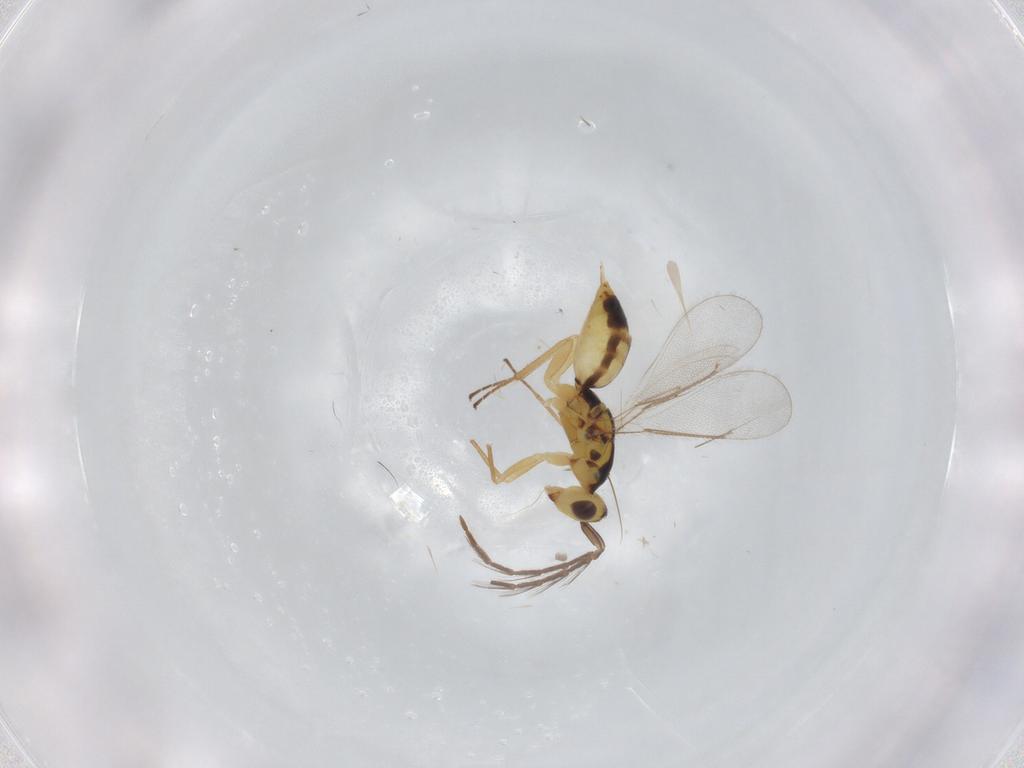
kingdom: Animalia
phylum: Arthropoda
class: Insecta
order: Hymenoptera
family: Eulophidae
